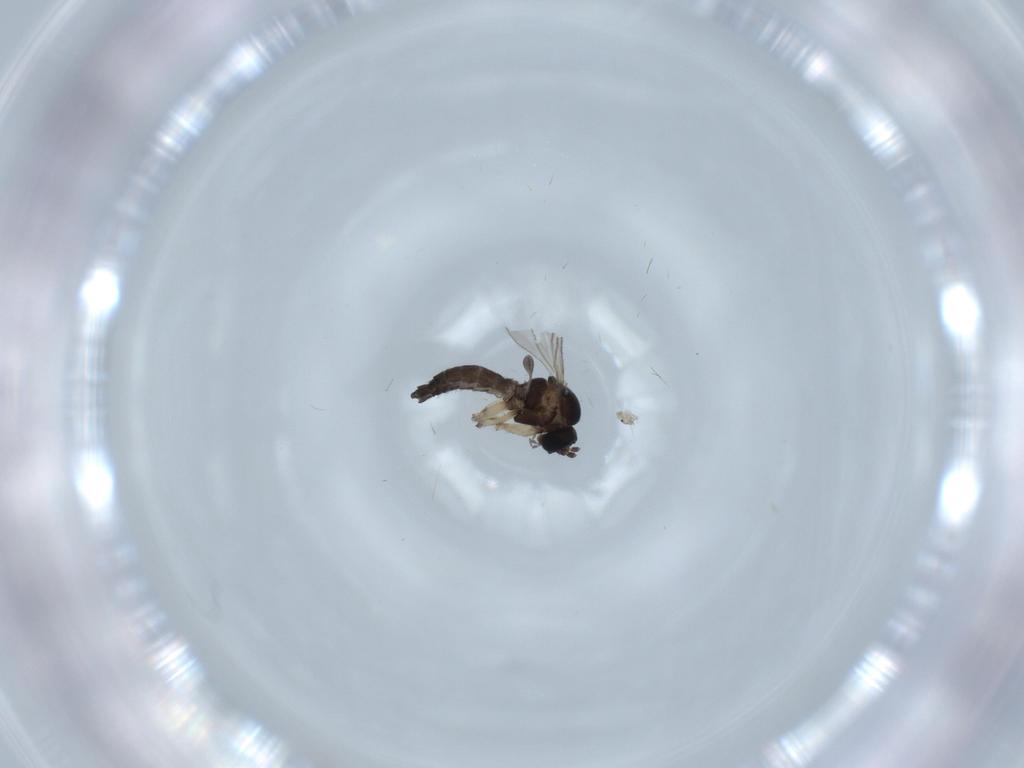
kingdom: Animalia
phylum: Arthropoda
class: Insecta
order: Diptera
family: Sciaridae
